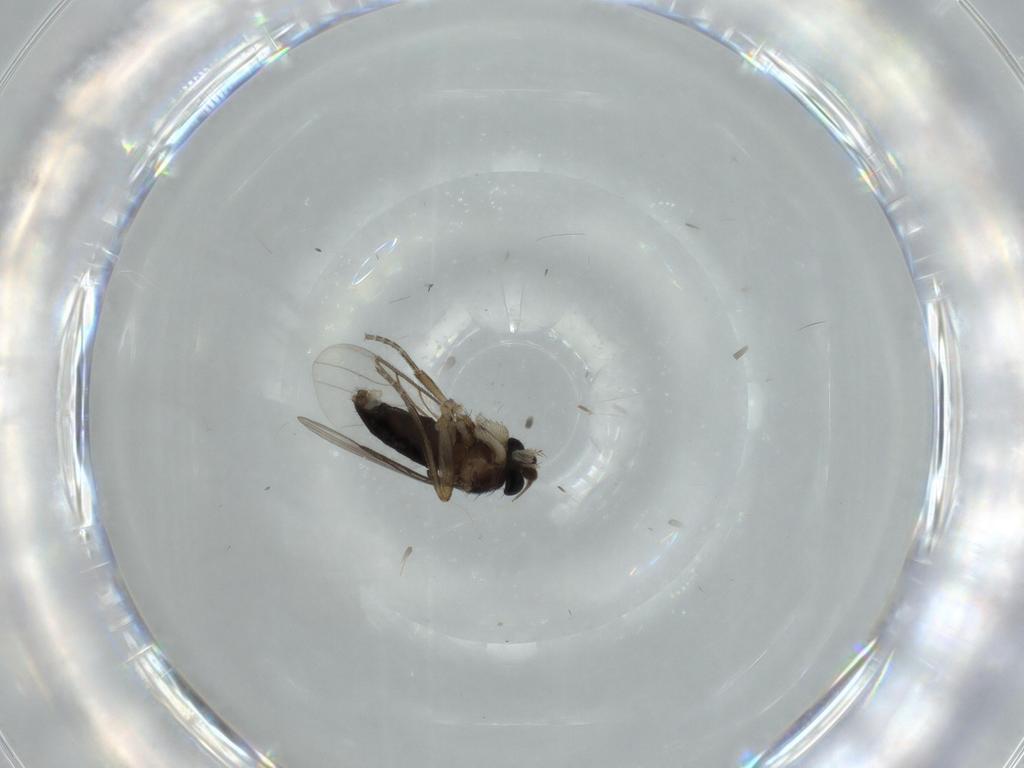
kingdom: Animalia
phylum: Arthropoda
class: Insecta
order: Diptera
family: Phoridae
